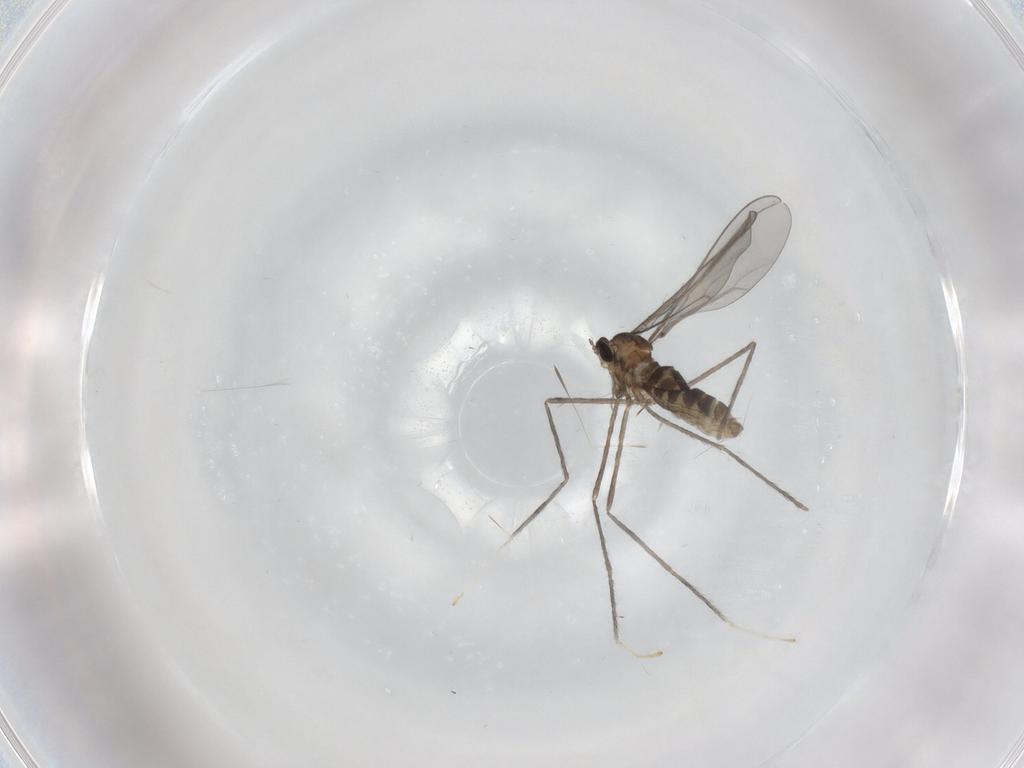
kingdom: Animalia
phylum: Arthropoda
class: Insecta
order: Diptera
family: Cecidomyiidae
